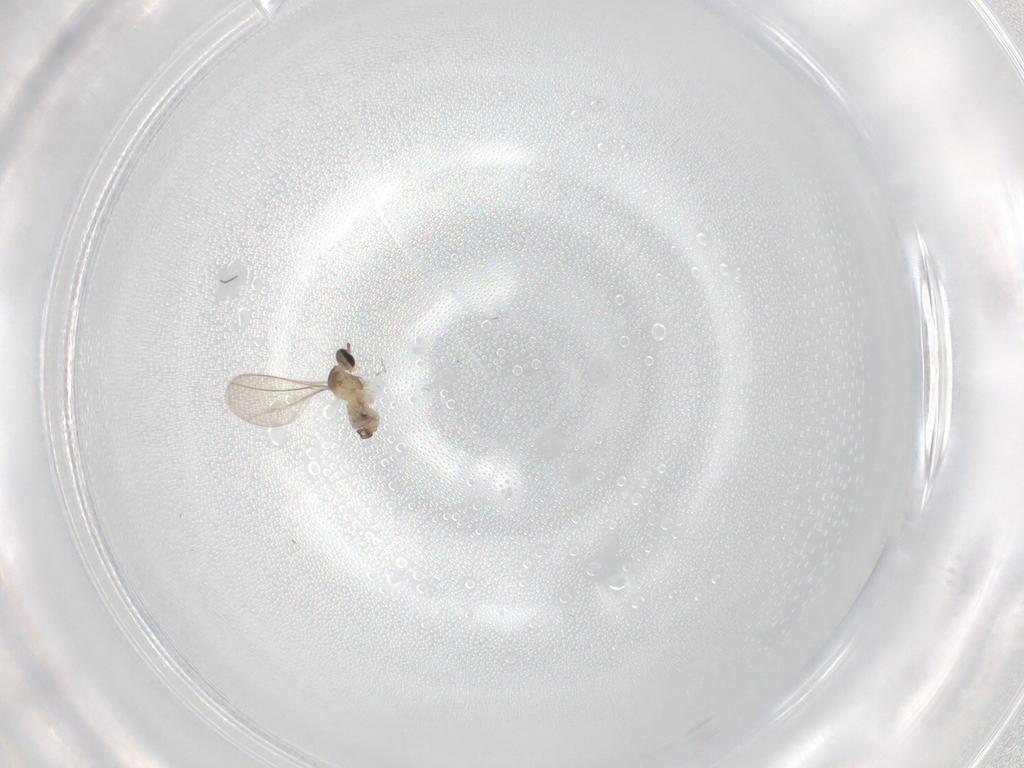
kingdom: Animalia
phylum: Arthropoda
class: Insecta
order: Diptera
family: Cecidomyiidae
